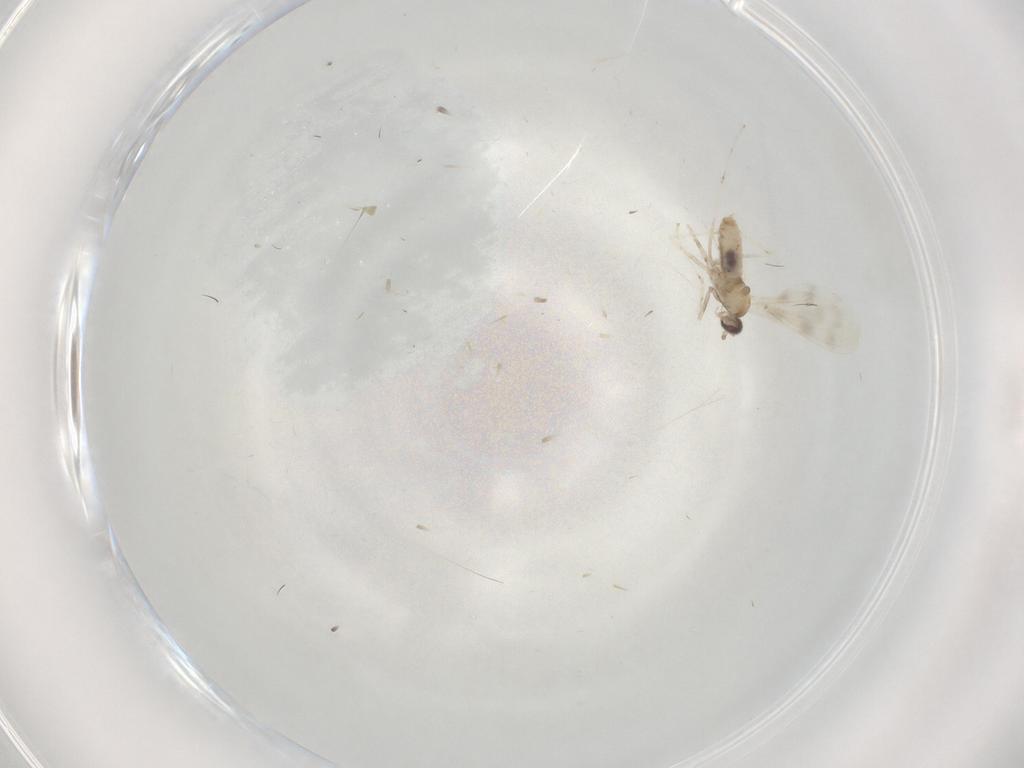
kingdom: Animalia
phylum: Arthropoda
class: Insecta
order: Diptera
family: Cecidomyiidae
